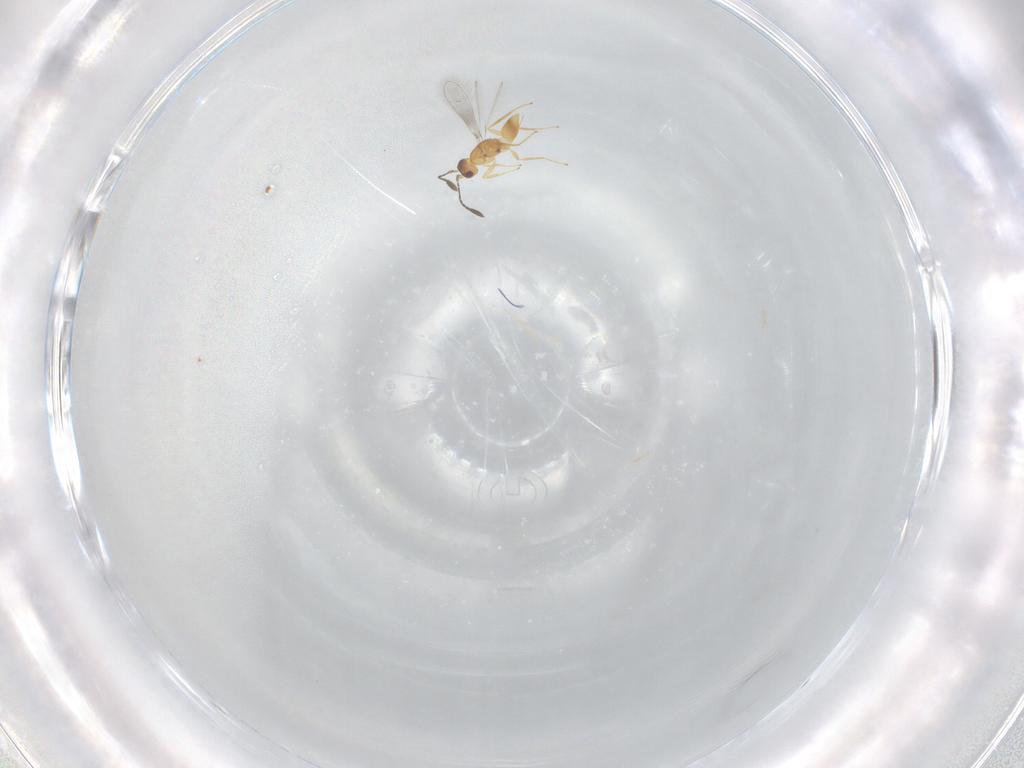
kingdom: Animalia
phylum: Arthropoda
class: Insecta
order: Hymenoptera
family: Mymaridae
